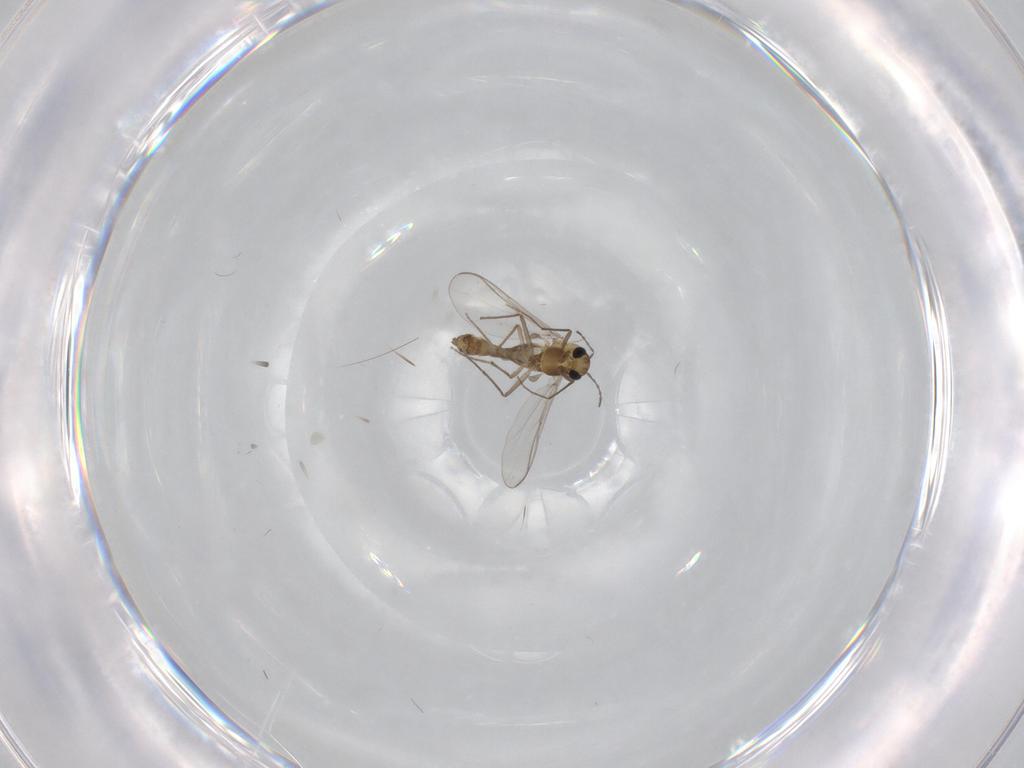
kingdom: Animalia
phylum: Arthropoda
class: Insecta
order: Diptera
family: Chironomidae
